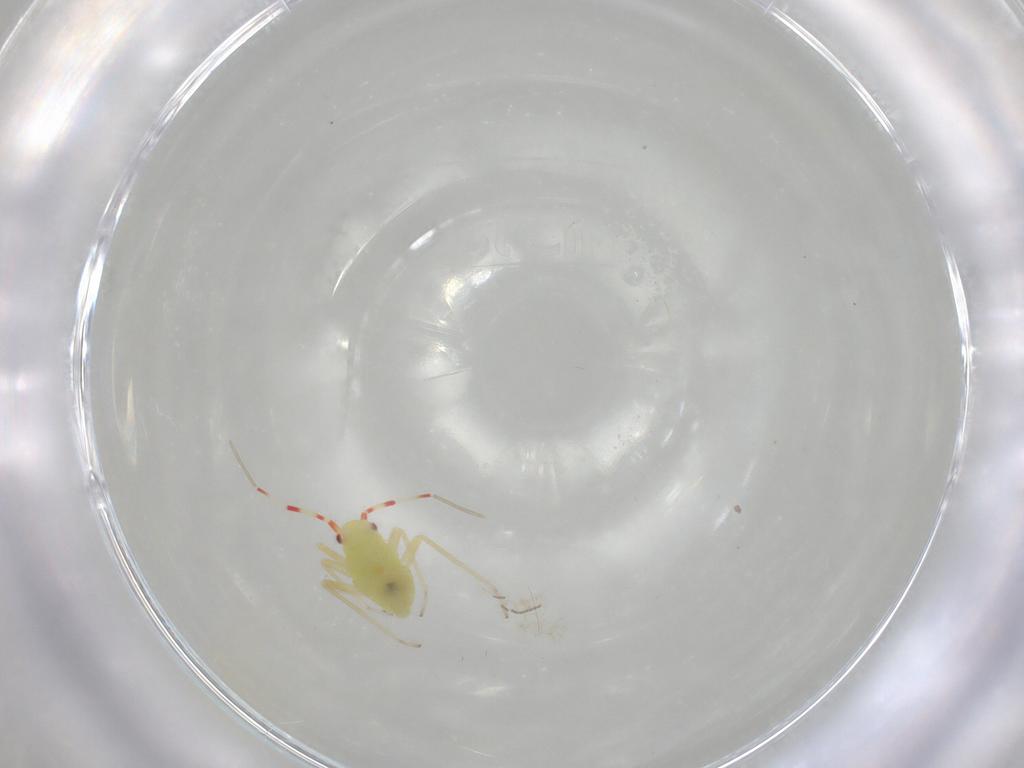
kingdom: Animalia
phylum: Arthropoda
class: Insecta
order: Hemiptera
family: Miridae
